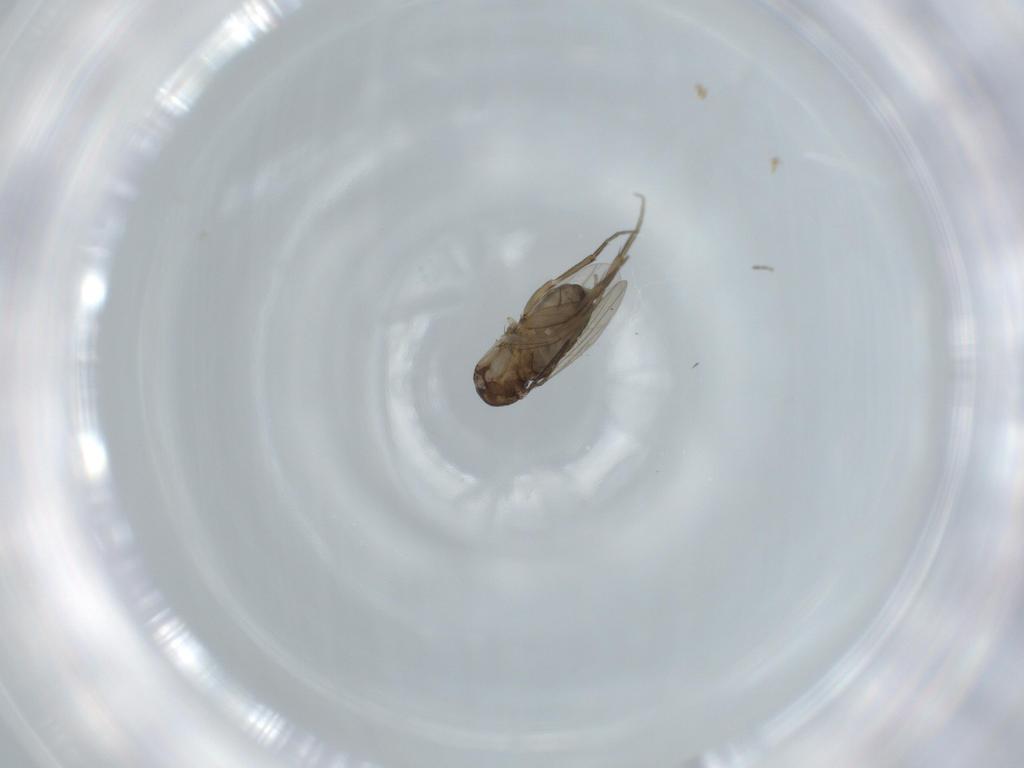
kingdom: Animalia
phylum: Arthropoda
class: Insecta
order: Diptera
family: Phoridae
